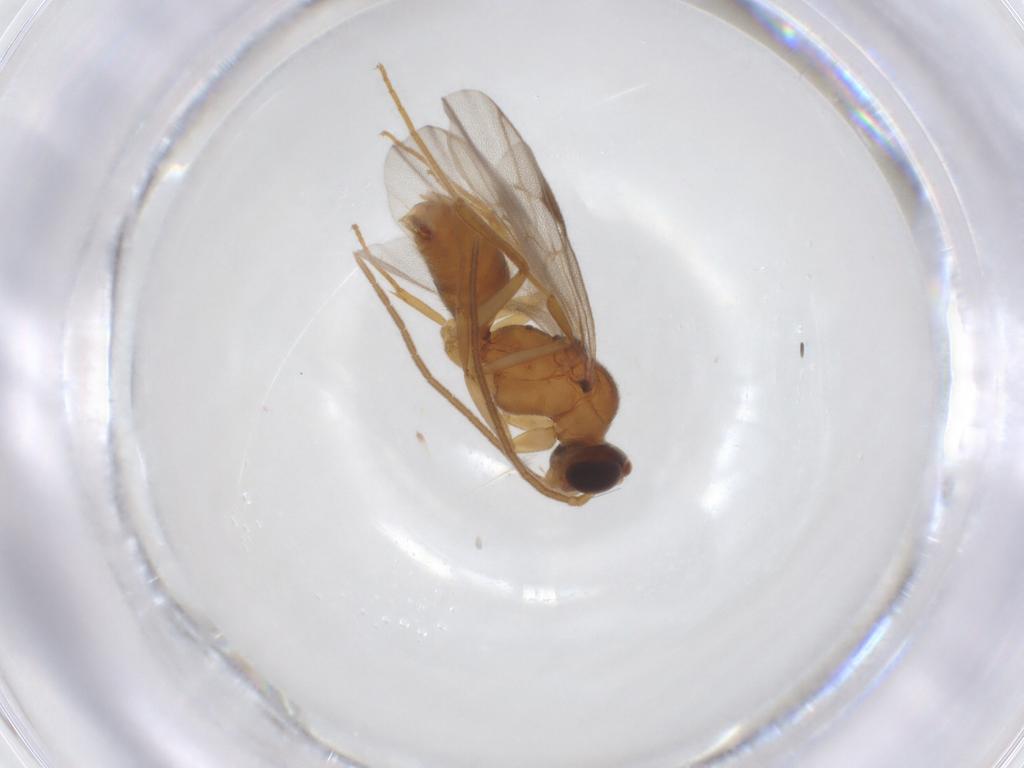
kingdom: Animalia
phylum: Arthropoda
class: Insecta
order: Hymenoptera
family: Formicidae
